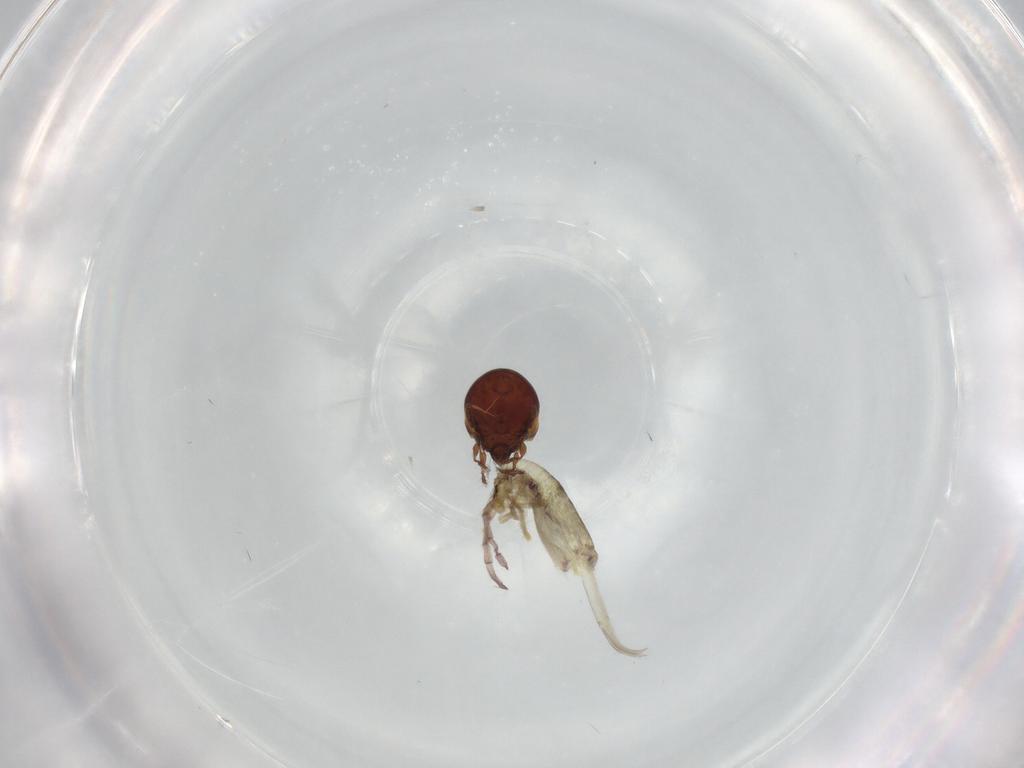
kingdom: Animalia
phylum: Arthropoda
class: Arachnida
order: Sarcoptiformes
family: Mochlozetidae
